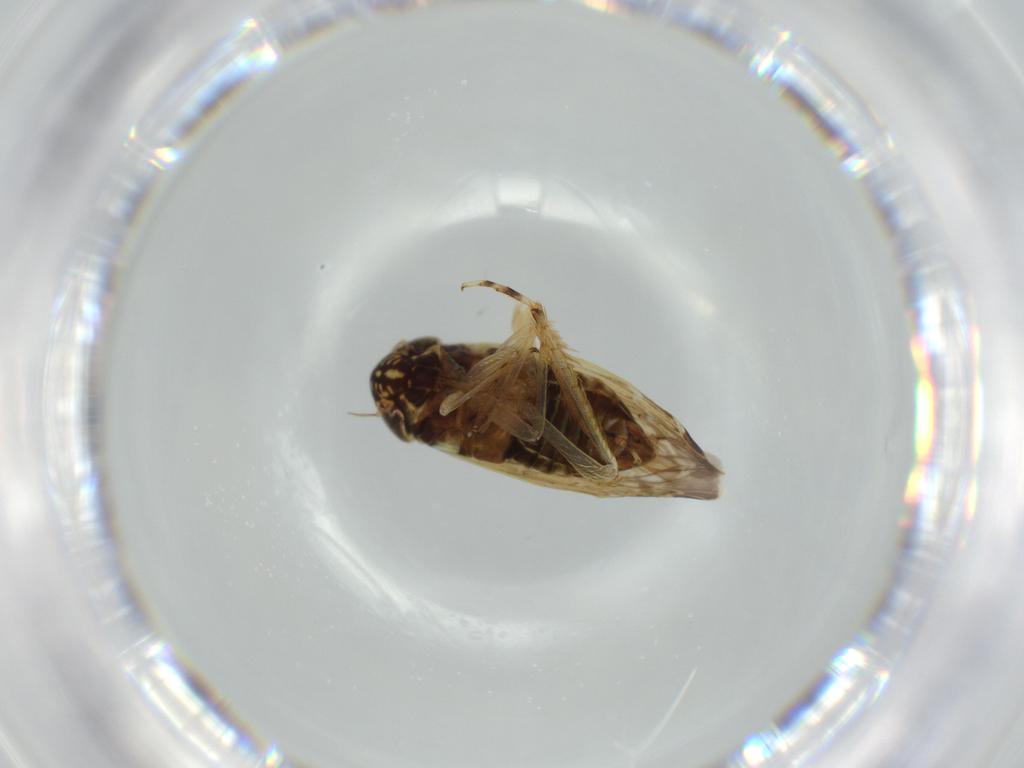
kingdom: Animalia
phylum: Arthropoda
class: Insecta
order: Hemiptera
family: Cicadellidae
